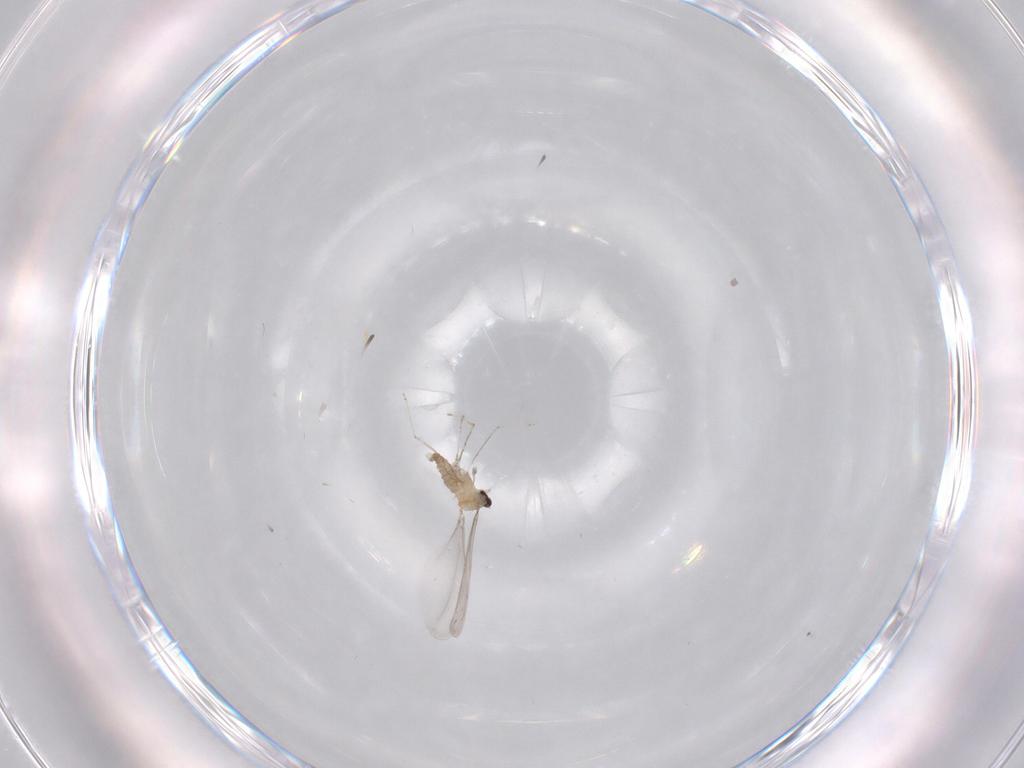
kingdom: Animalia
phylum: Arthropoda
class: Insecta
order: Diptera
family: Cecidomyiidae
